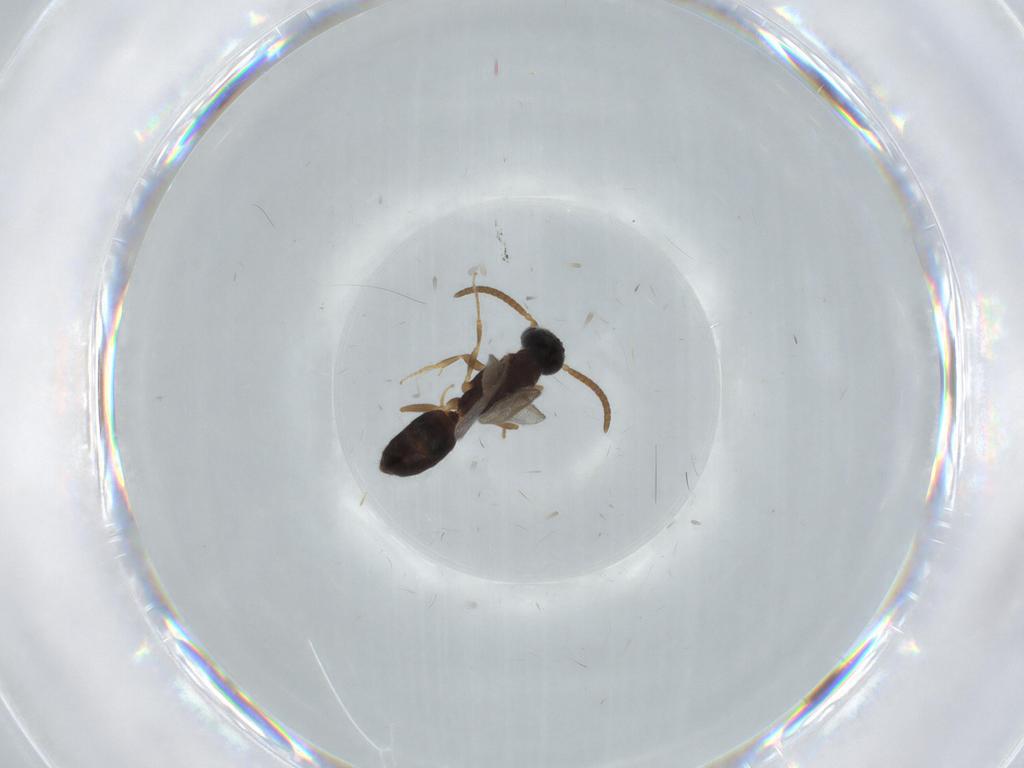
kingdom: Animalia
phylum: Arthropoda
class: Insecta
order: Hymenoptera
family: Bethylidae
